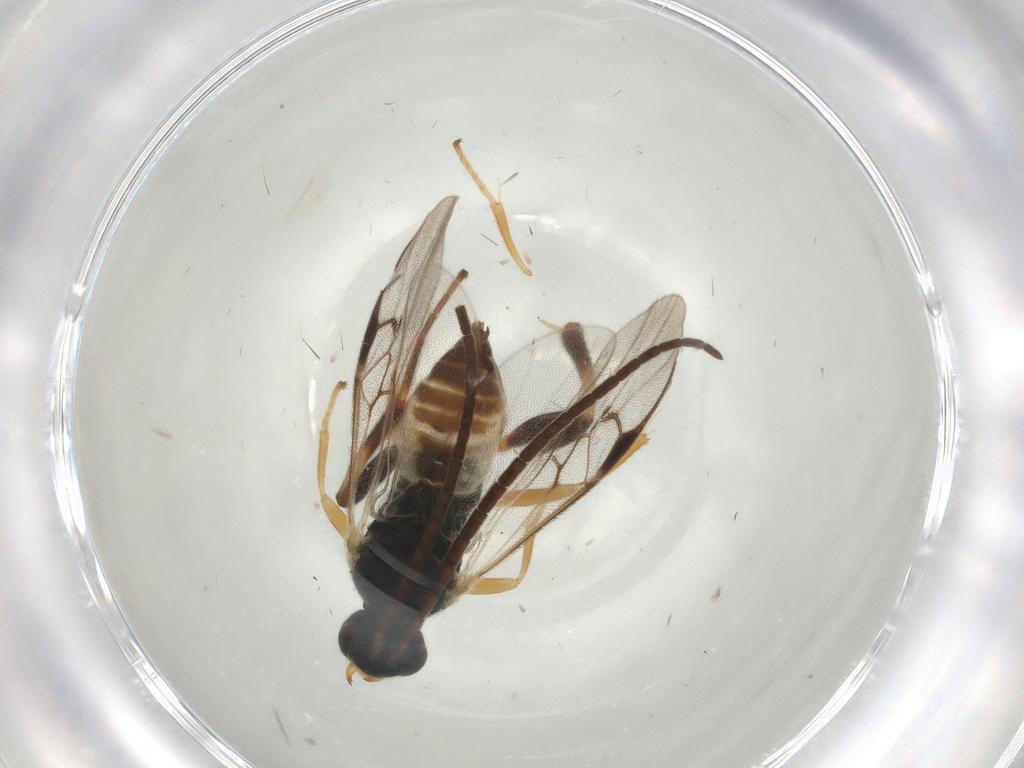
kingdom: Animalia
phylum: Arthropoda
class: Insecta
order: Hymenoptera
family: Braconidae
